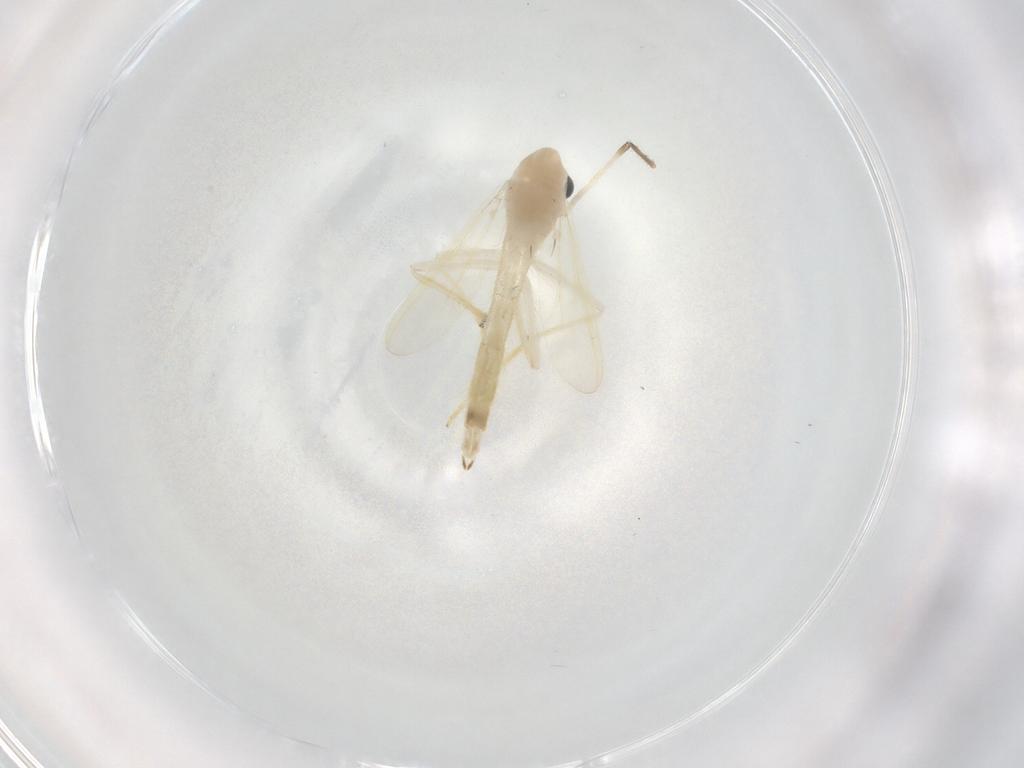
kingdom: Animalia
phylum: Arthropoda
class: Insecta
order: Diptera
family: Chironomidae
